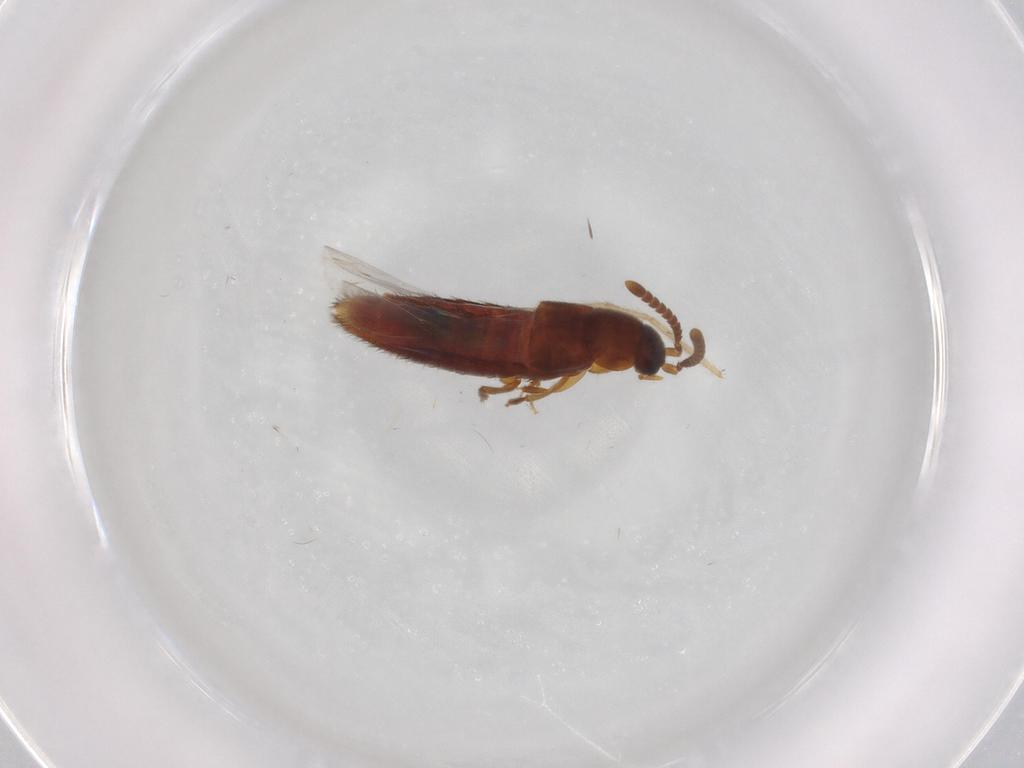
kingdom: Animalia
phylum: Arthropoda
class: Insecta
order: Coleoptera
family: Staphylinidae
